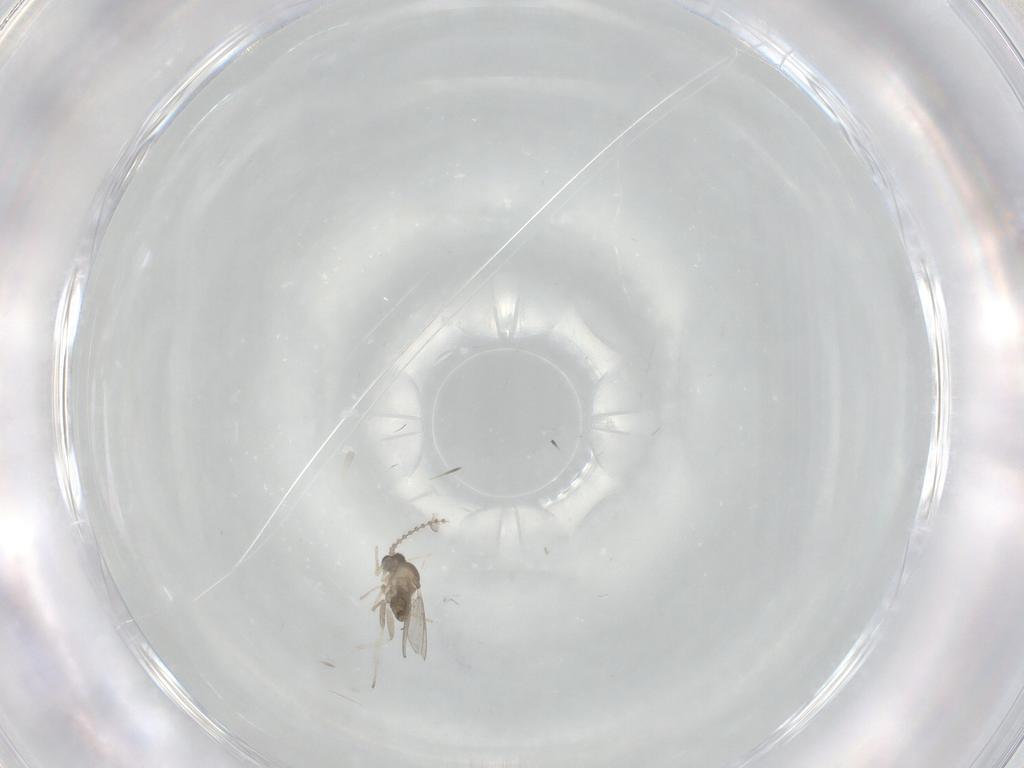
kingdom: Animalia
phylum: Arthropoda
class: Insecta
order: Diptera
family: Cecidomyiidae
